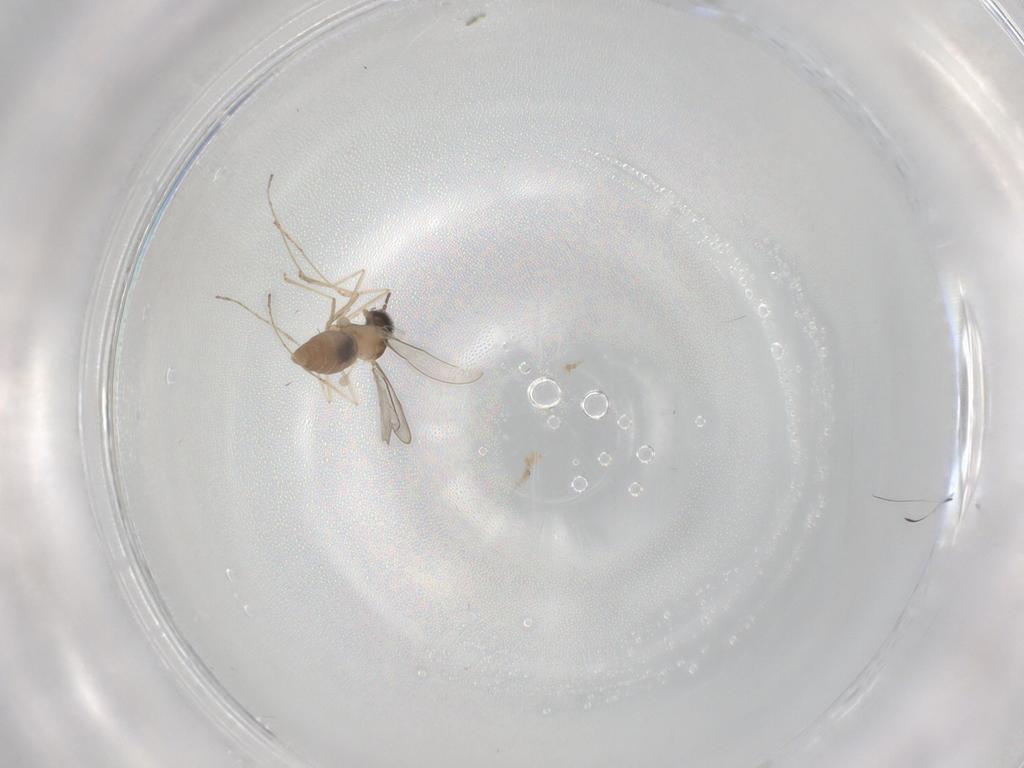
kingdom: Animalia
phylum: Arthropoda
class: Insecta
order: Diptera
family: Cecidomyiidae
